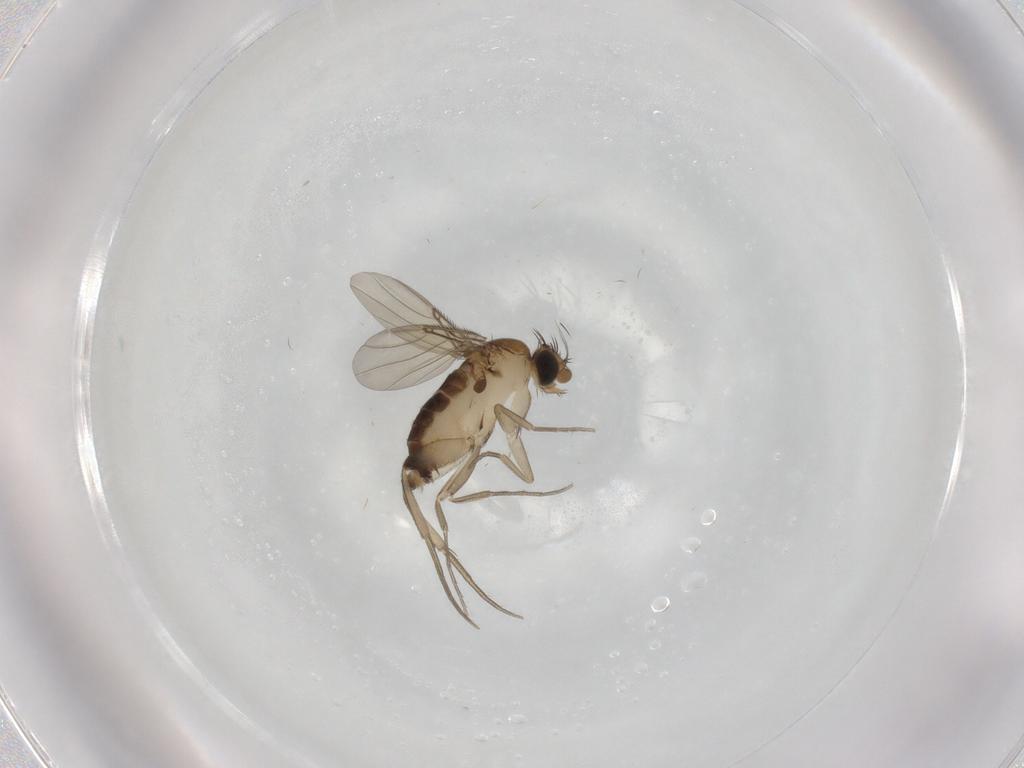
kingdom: Animalia
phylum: Arthropoda
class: Insecta
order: Diptera
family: Phoridae
